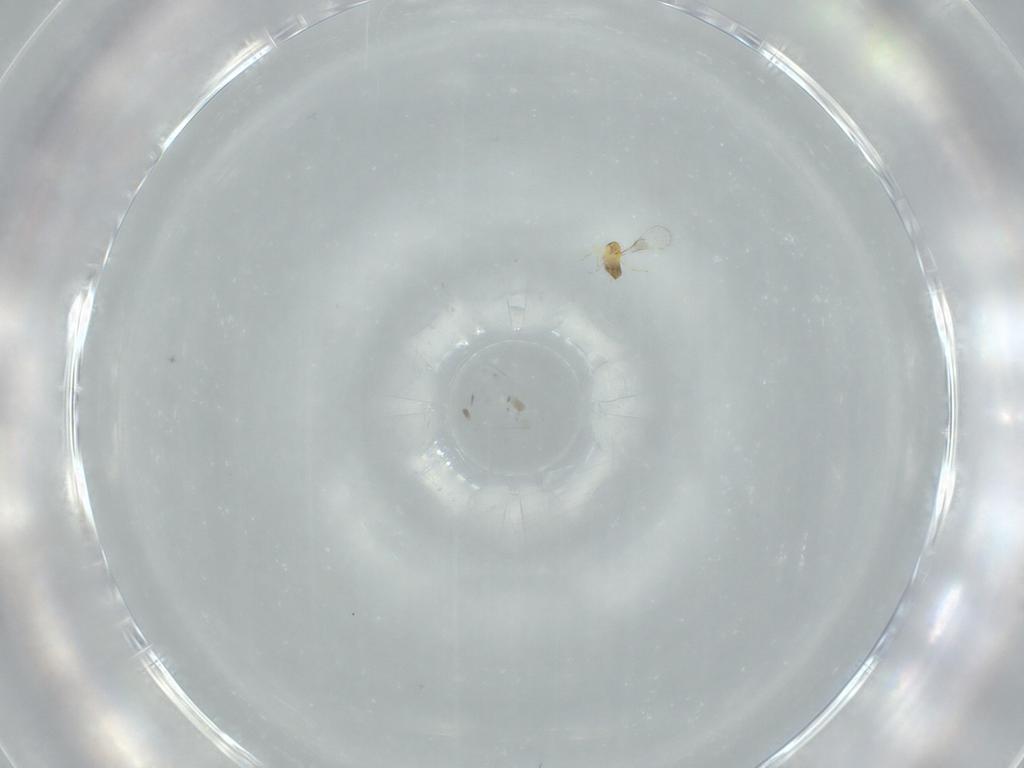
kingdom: Animalia
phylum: Arthropoda
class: Insecta
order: Hymenoptera
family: Trichogrammatidae
